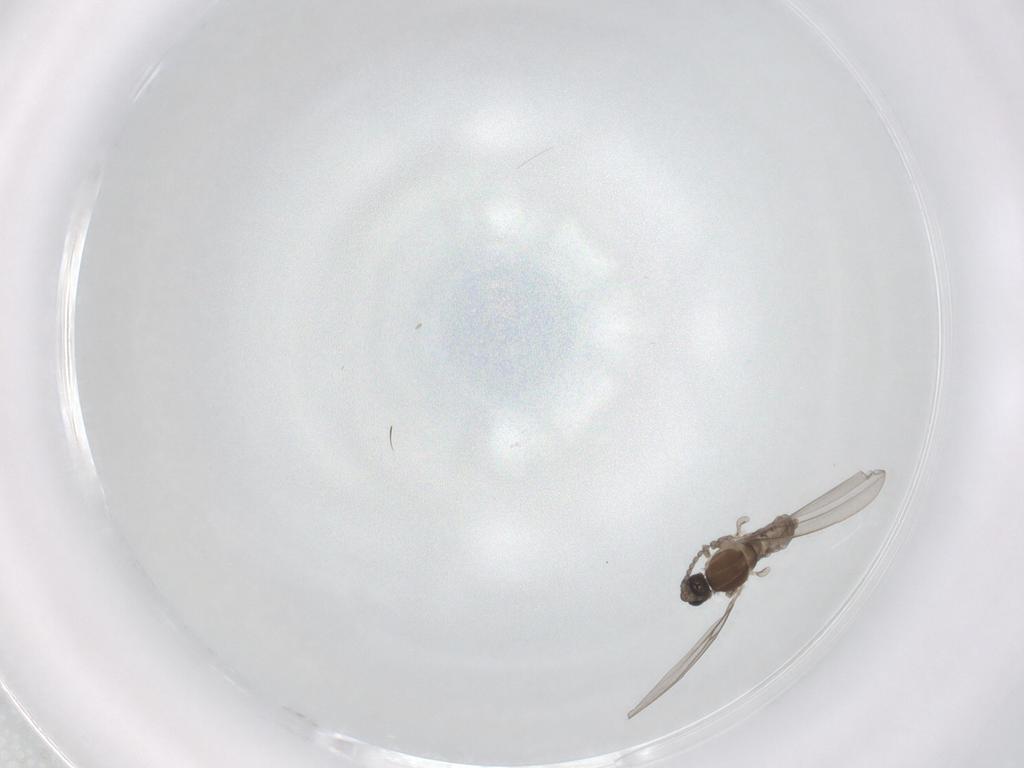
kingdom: Animalia
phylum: Arthropoda
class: Insecta
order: Diptera
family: Cecidomyiidae
